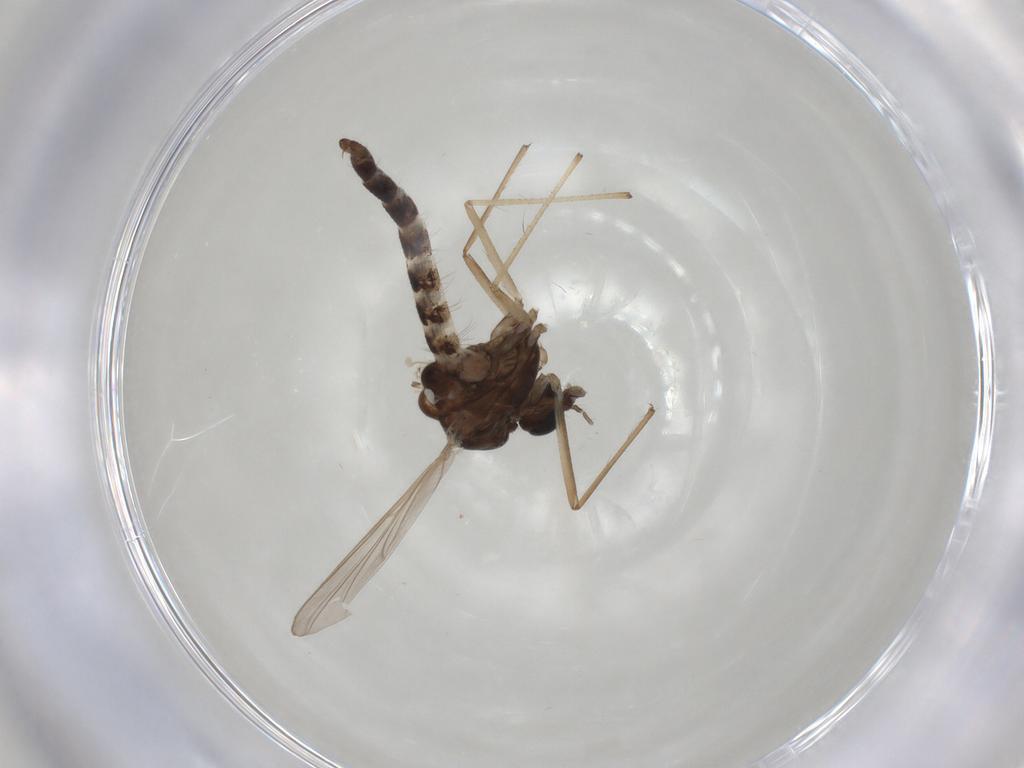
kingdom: Animalia
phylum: Arthropoda
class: Insecta
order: Diptera
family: Chironomidae
